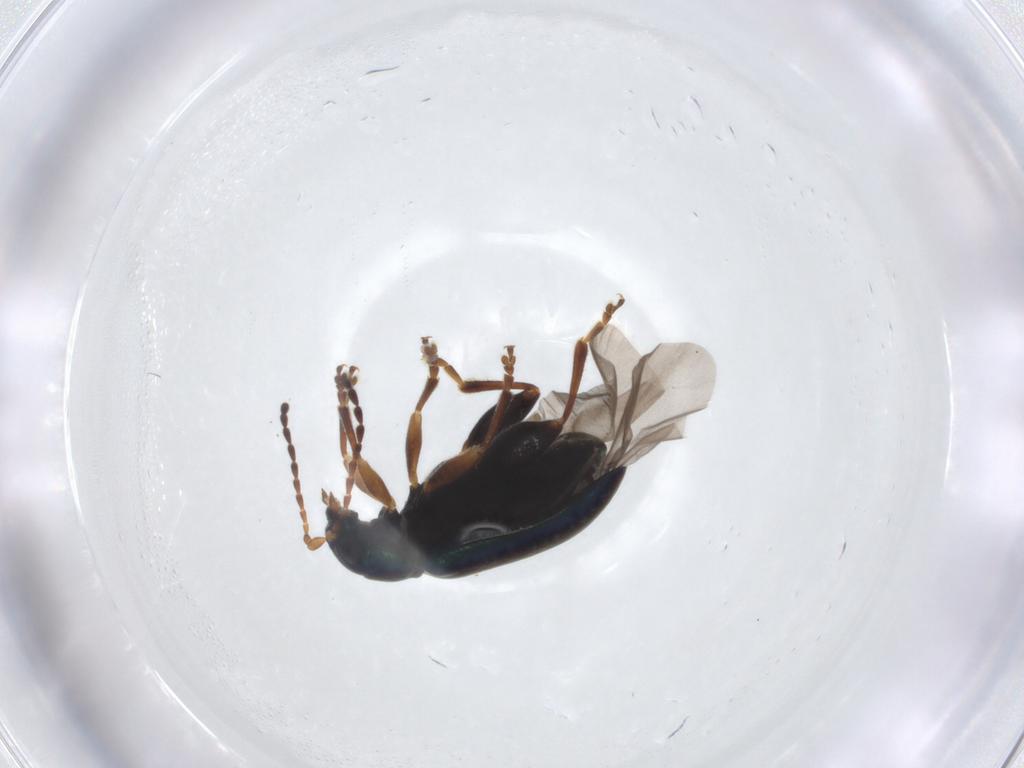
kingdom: Animalia
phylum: Arthropoda
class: Insecta
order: Coleoptera
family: Chrysomelidae
